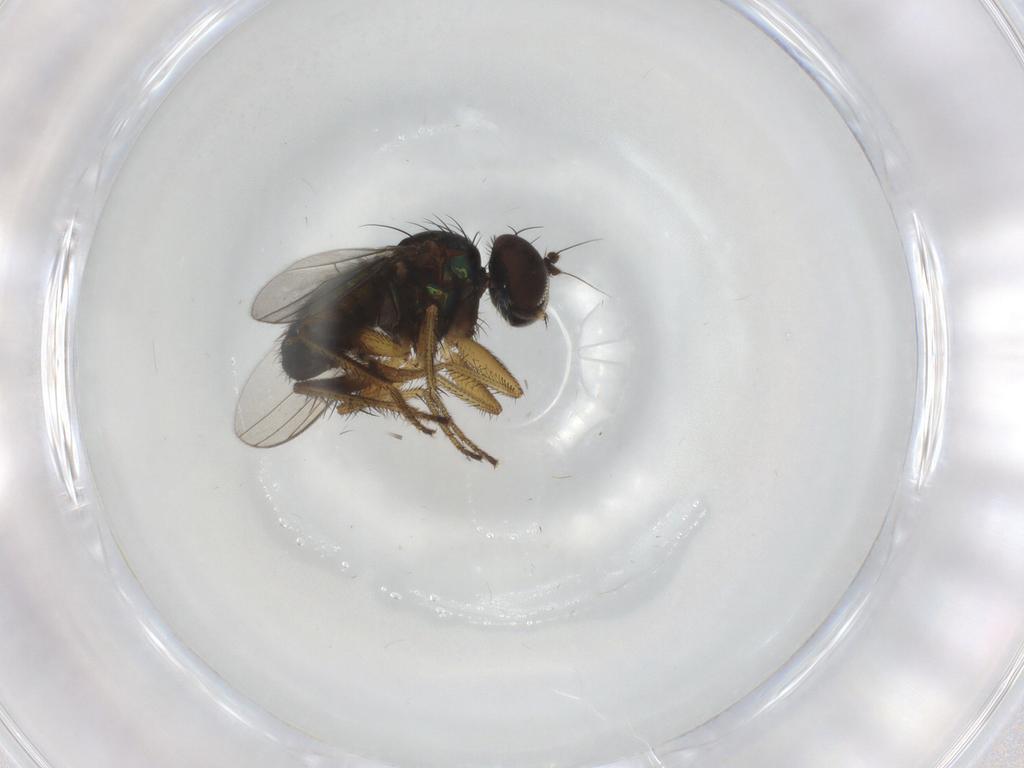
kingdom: Animalia
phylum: Arthropoda
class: Insecta
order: Diptera
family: Dolichopodidae
